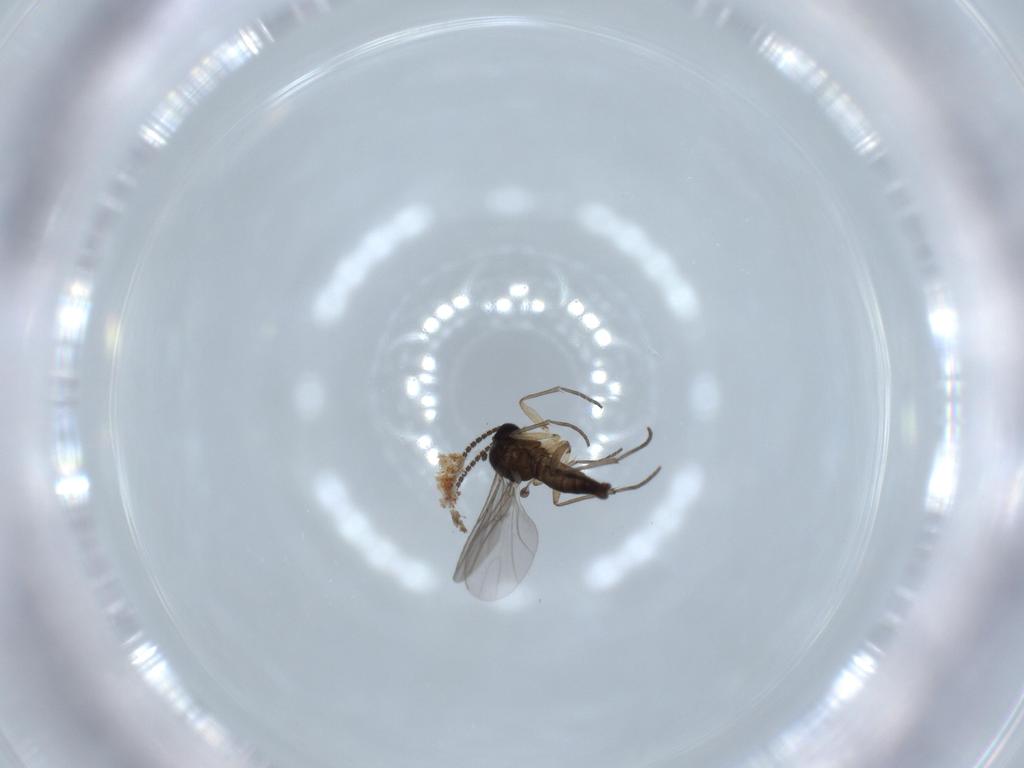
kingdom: Animalia
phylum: Arthropoda
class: Insecta
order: Diptera
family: Sciaridae
